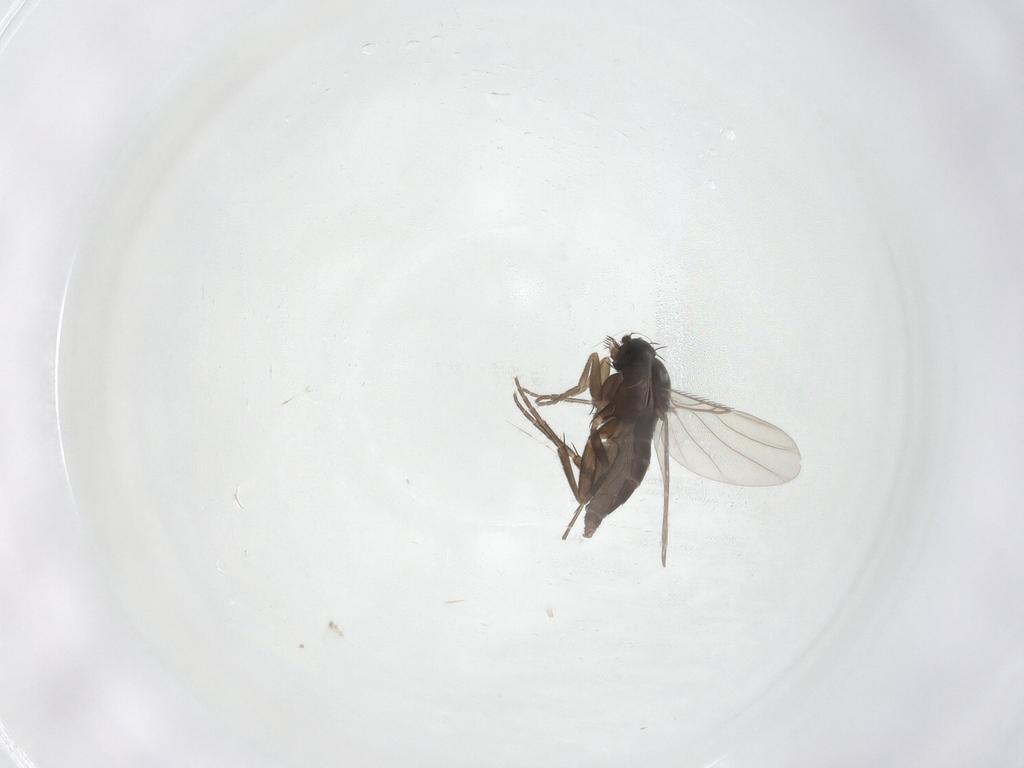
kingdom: Animalia
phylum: Arthropoda
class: Insecta
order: Diptera
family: Phoridae
